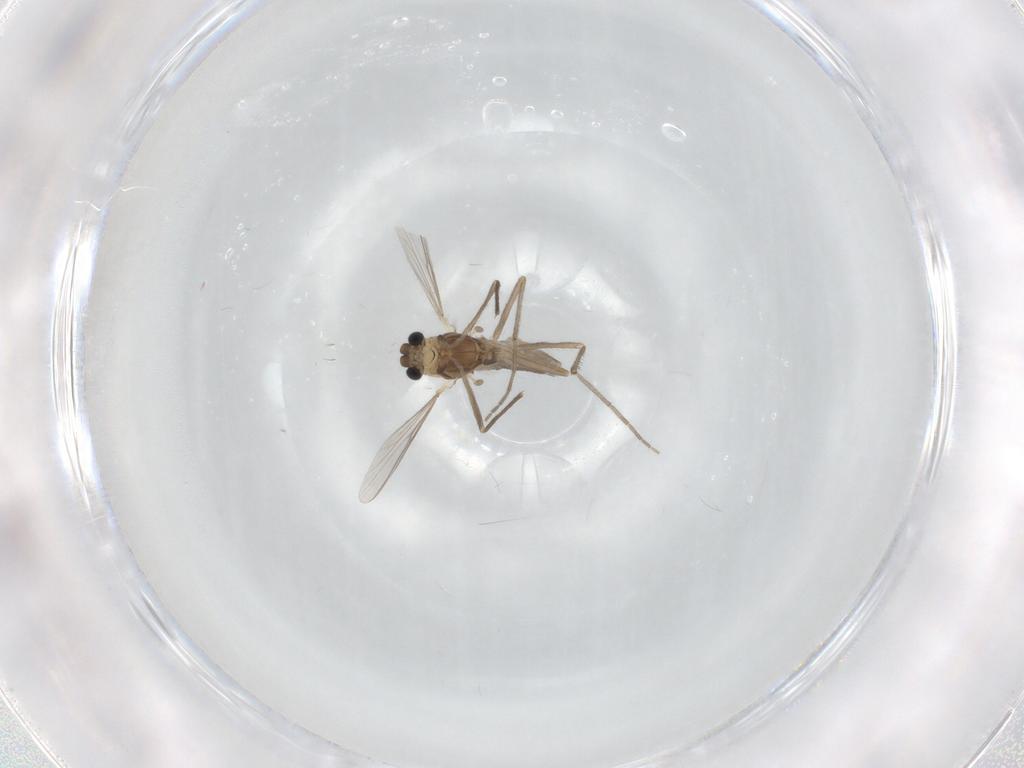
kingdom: Animalia
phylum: Arthropoda
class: Insecta
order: Diptera
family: Chironomidae
